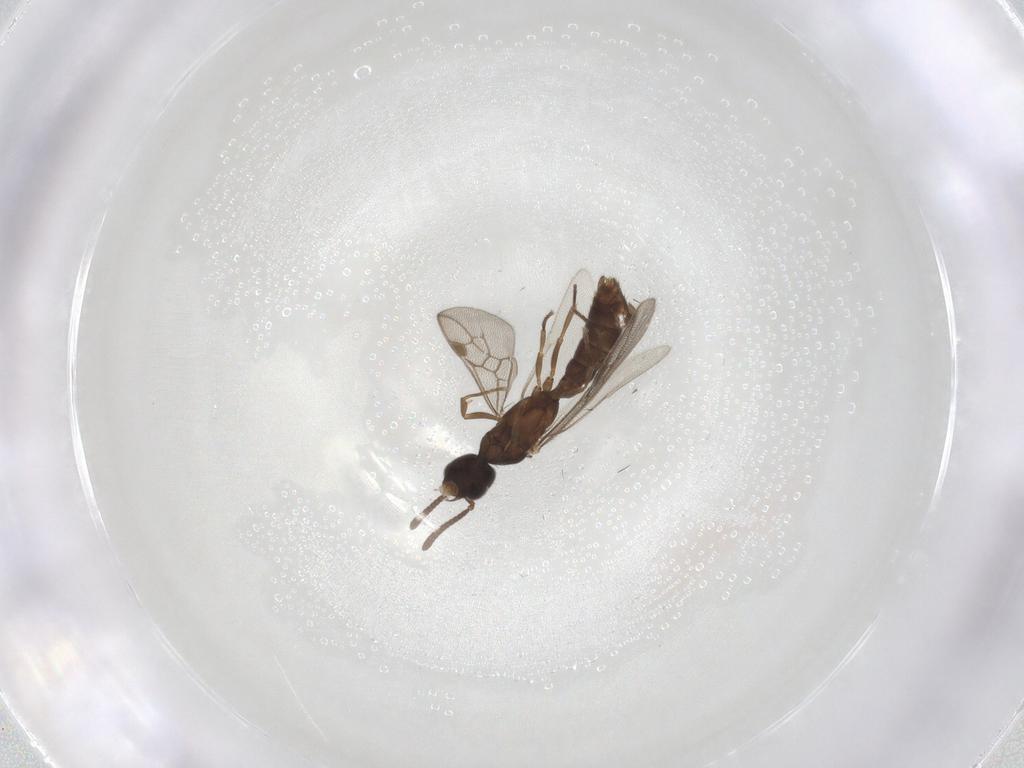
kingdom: Animalia
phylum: Arthropoda
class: Insecta
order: Hymenoptera
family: Formicidae
